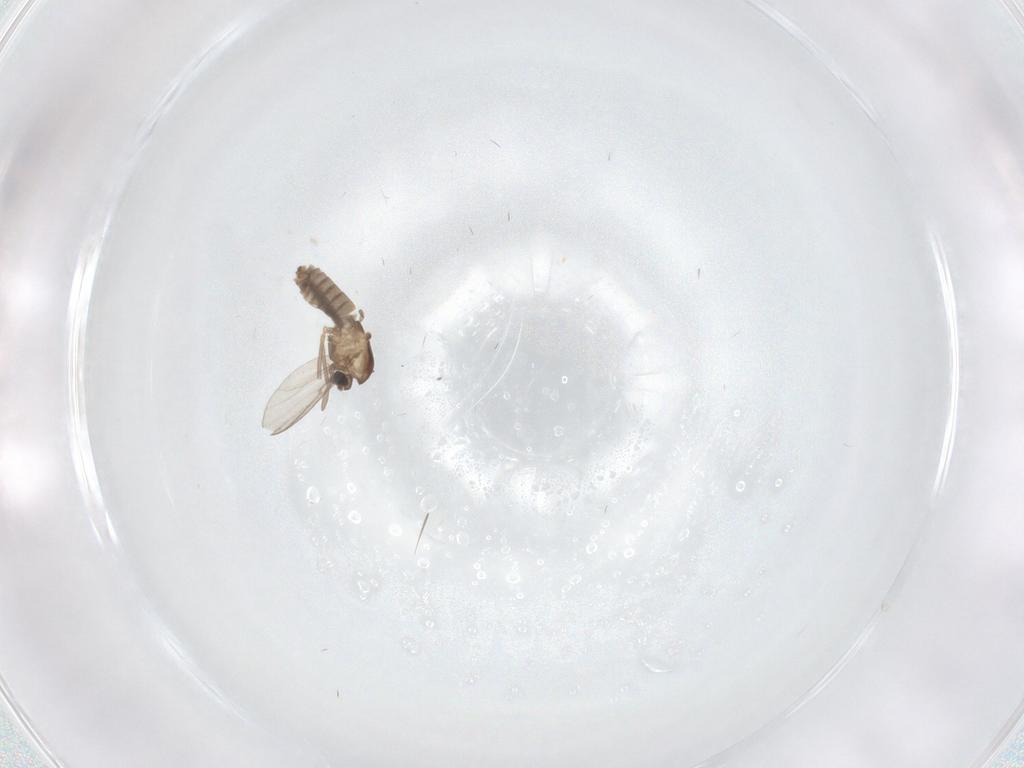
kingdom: Animalia
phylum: Arthropoda
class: Insecta
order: Diptera
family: Chironomidae
